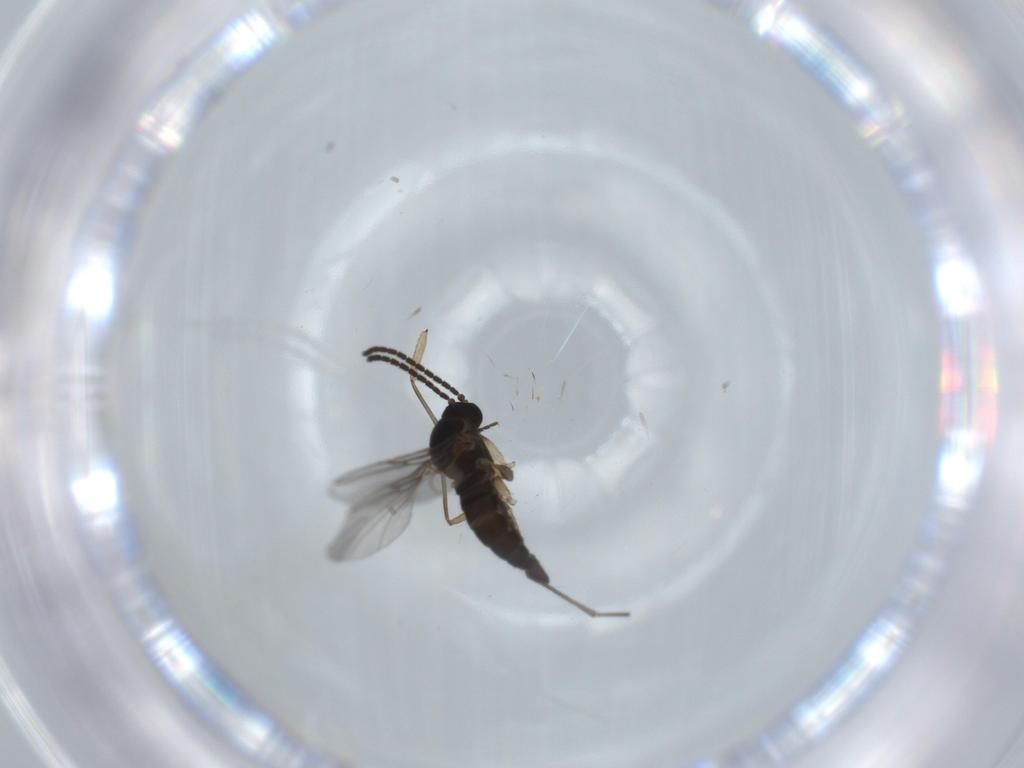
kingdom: Animalia
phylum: Arthropoda
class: Insecta
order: Diptera
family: Sciaridae
